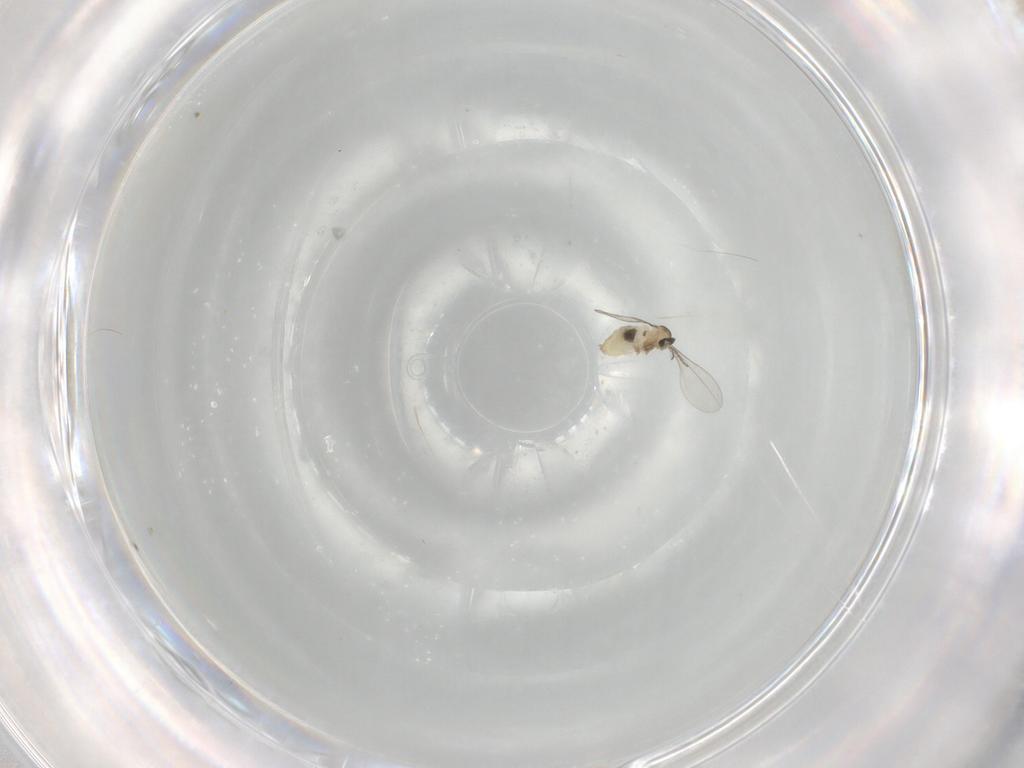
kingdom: Animalia
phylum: Arthropoda
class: Insecta
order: Diptera
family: Cecidomyiidae
